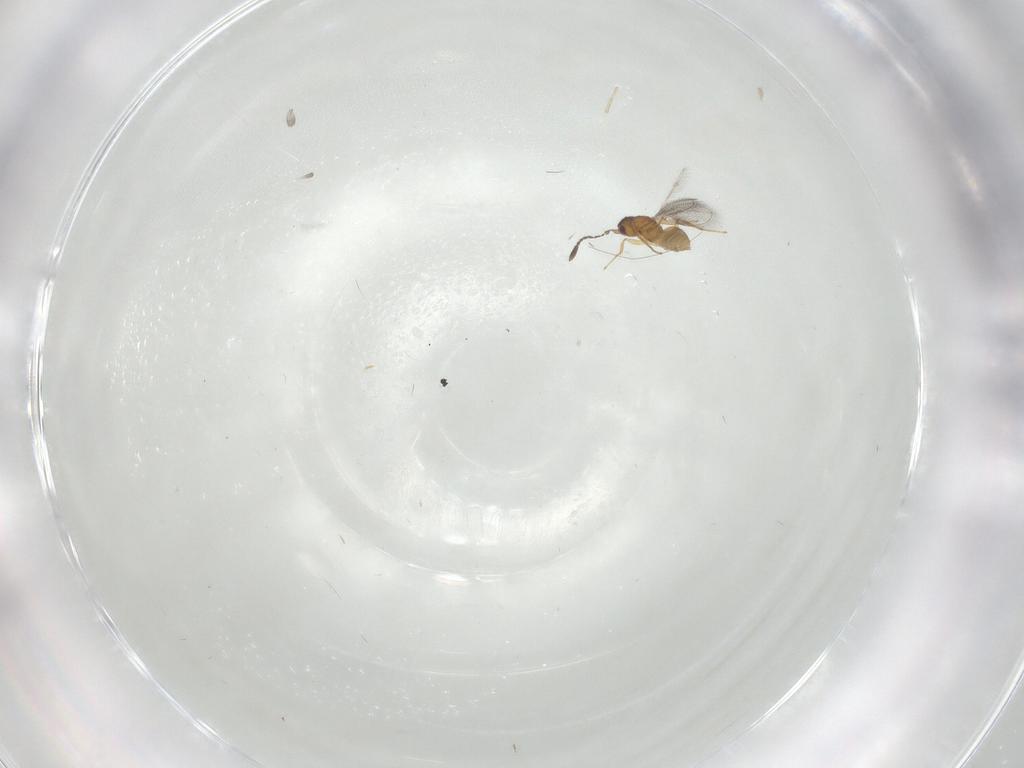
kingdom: Animalia
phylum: Arthropoda
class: Insecta
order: Hymenoptera
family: Mymaridae
